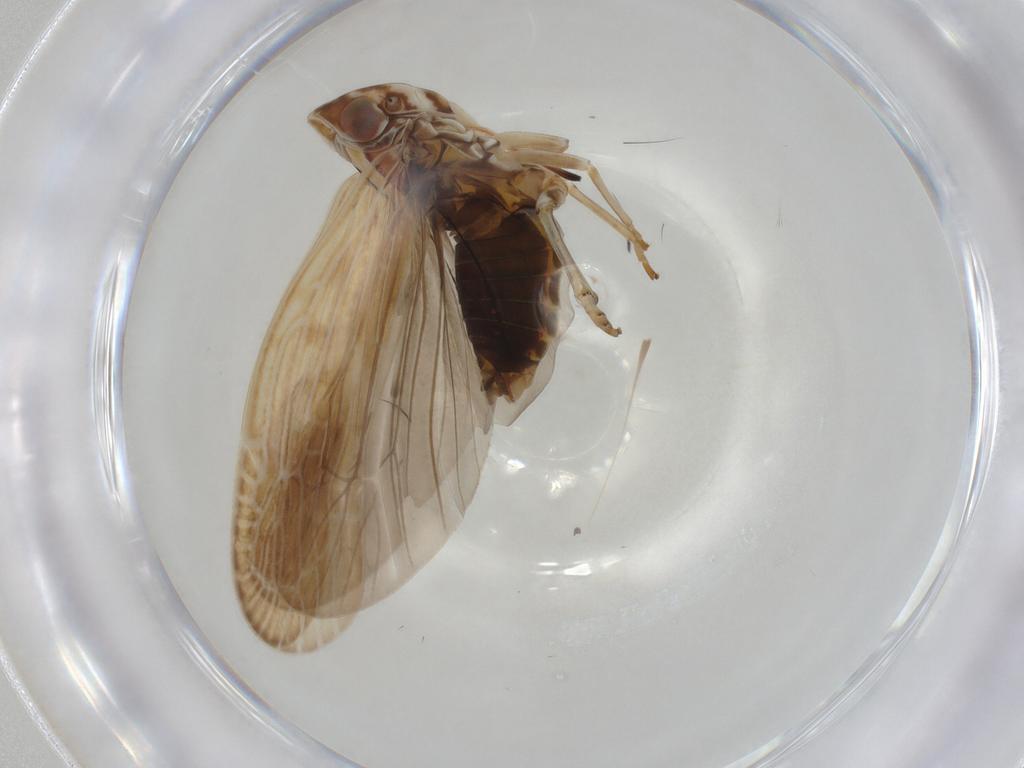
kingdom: Animalia
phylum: Arthropoda
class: Insecta
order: Hemiptera
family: Achilidae
